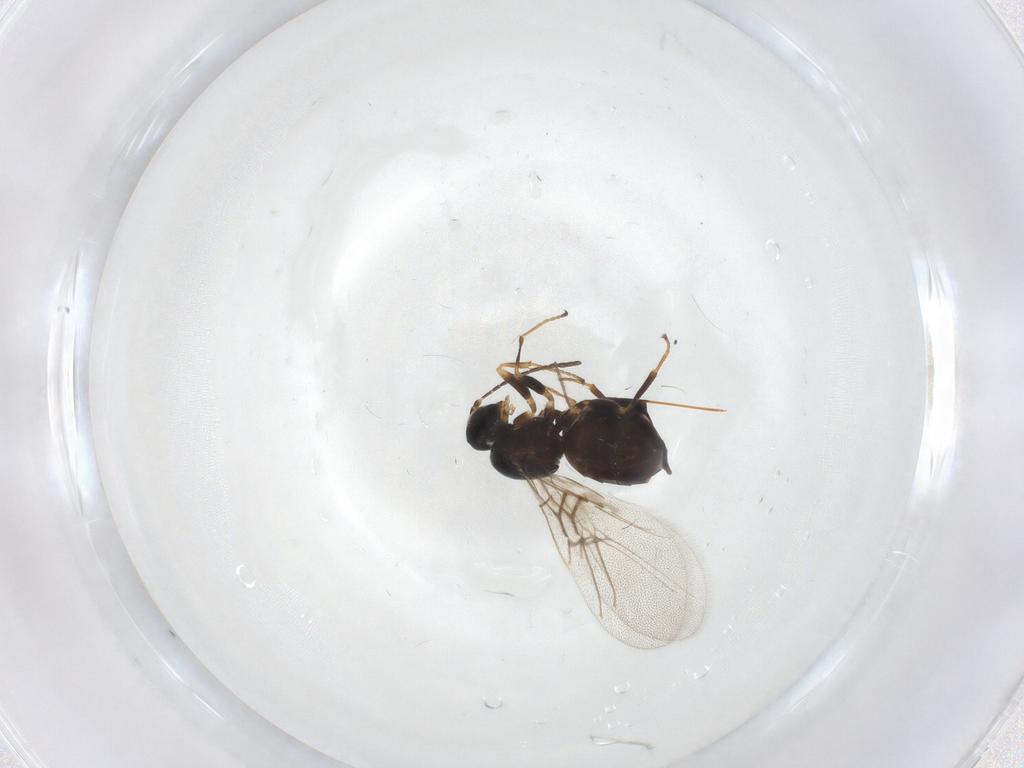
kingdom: Animalia
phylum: Arthropoda
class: Insecta
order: Hymenoptera
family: Cynipidae
